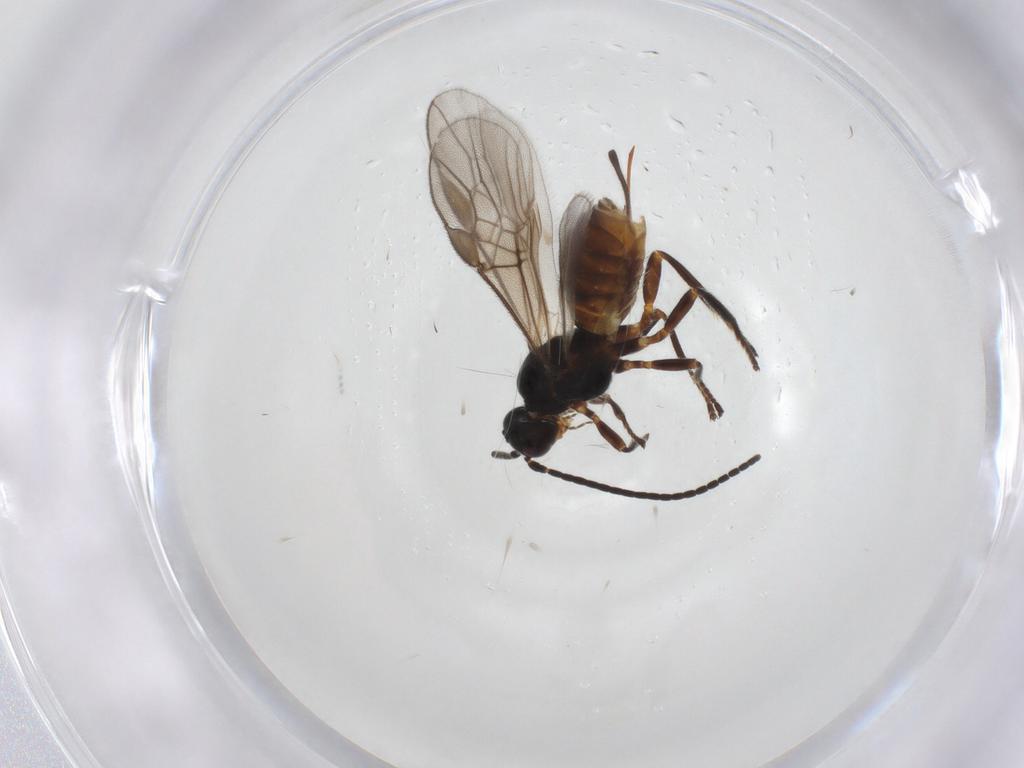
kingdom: Animalia
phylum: Arthropoda
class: Insecta
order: Hymenoptera
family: Braconidae
